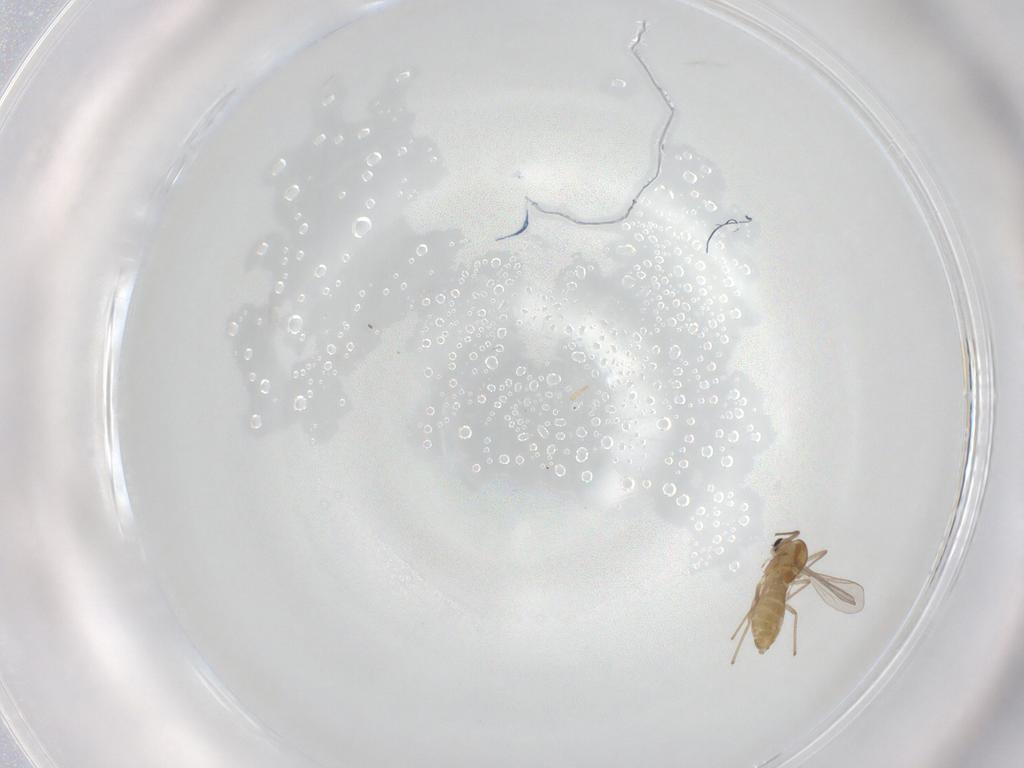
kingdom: Animalia
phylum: Arthropoda
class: Insecta
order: Diptera
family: Chironomidae
